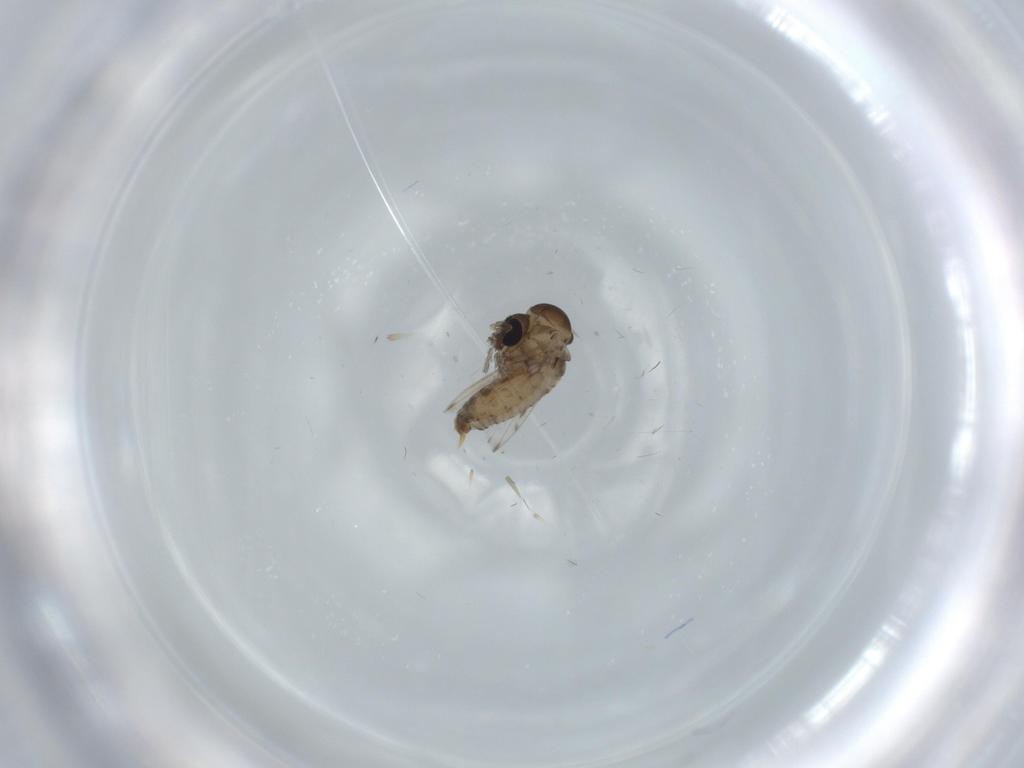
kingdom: Animalia
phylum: Arthropoda
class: Insecta
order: Diptera
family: Psychodidae
